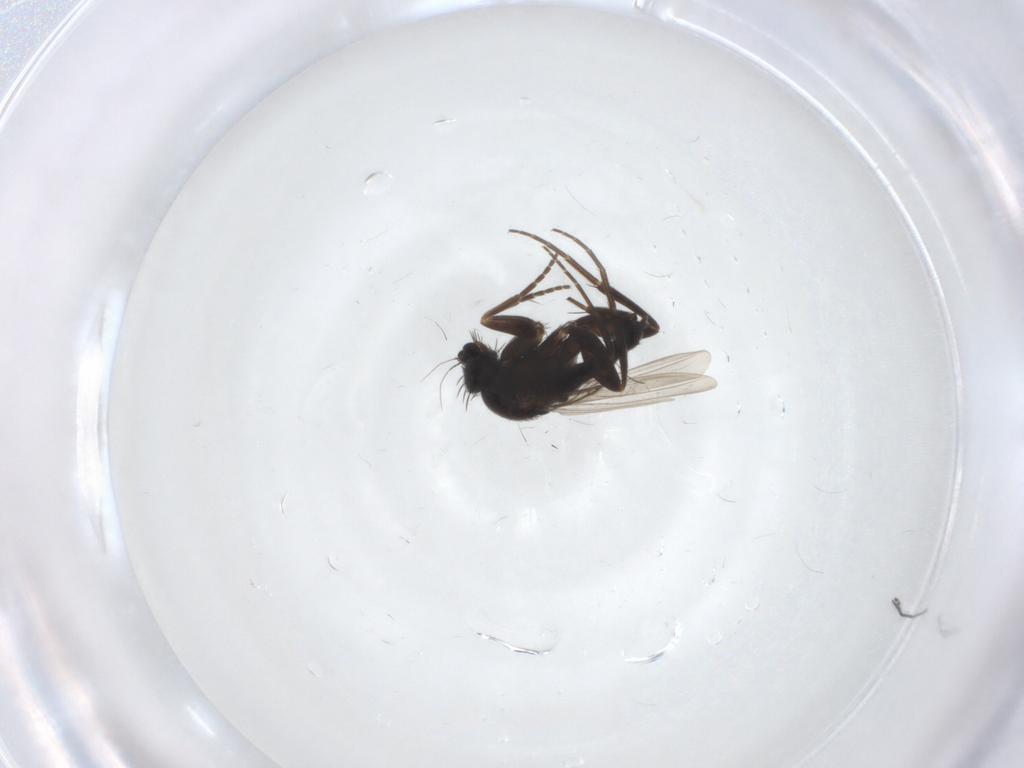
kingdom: Animalia
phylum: Arthropoda
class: Insecta
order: Diptera
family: Phoridae
